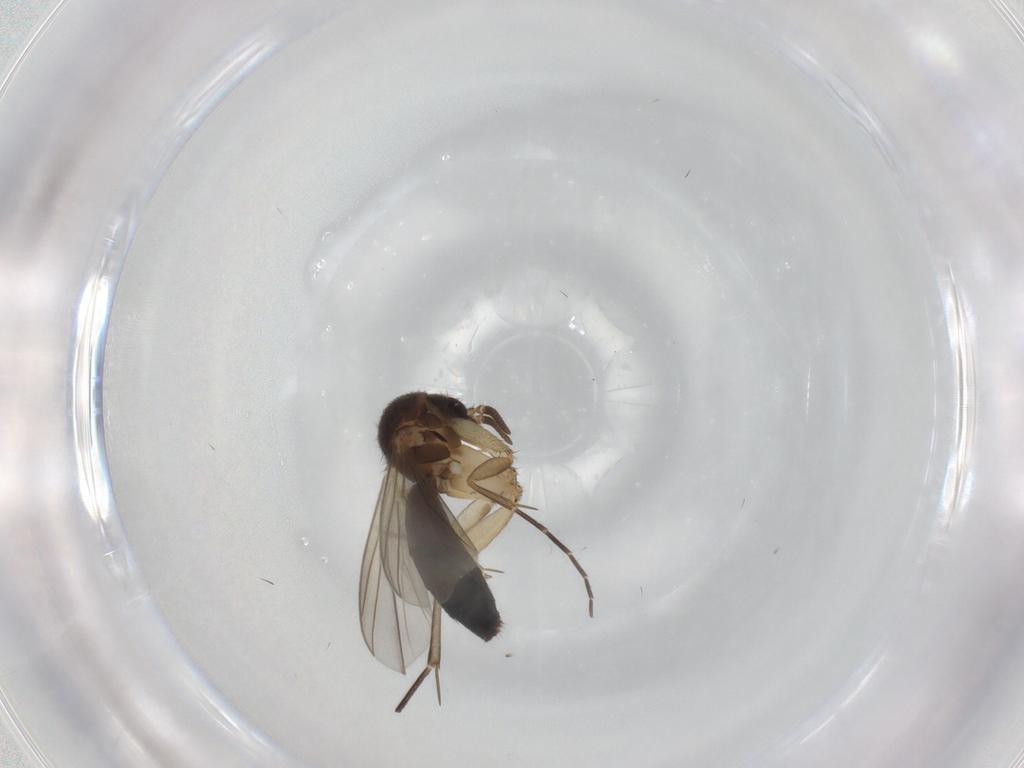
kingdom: Animalia
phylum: Arthropoda
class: Insecta
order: Diptera
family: Mycetophilidae
